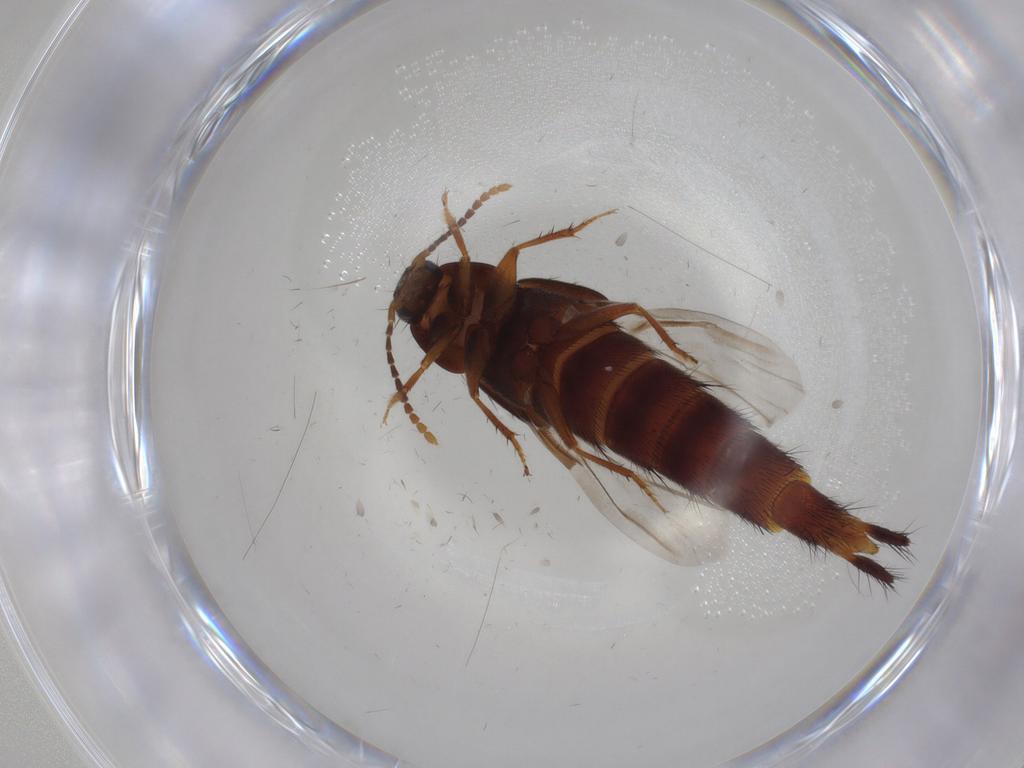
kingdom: Animalia
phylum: Arthropoda
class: Insecta
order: Coleoptera
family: Staphylinidae
